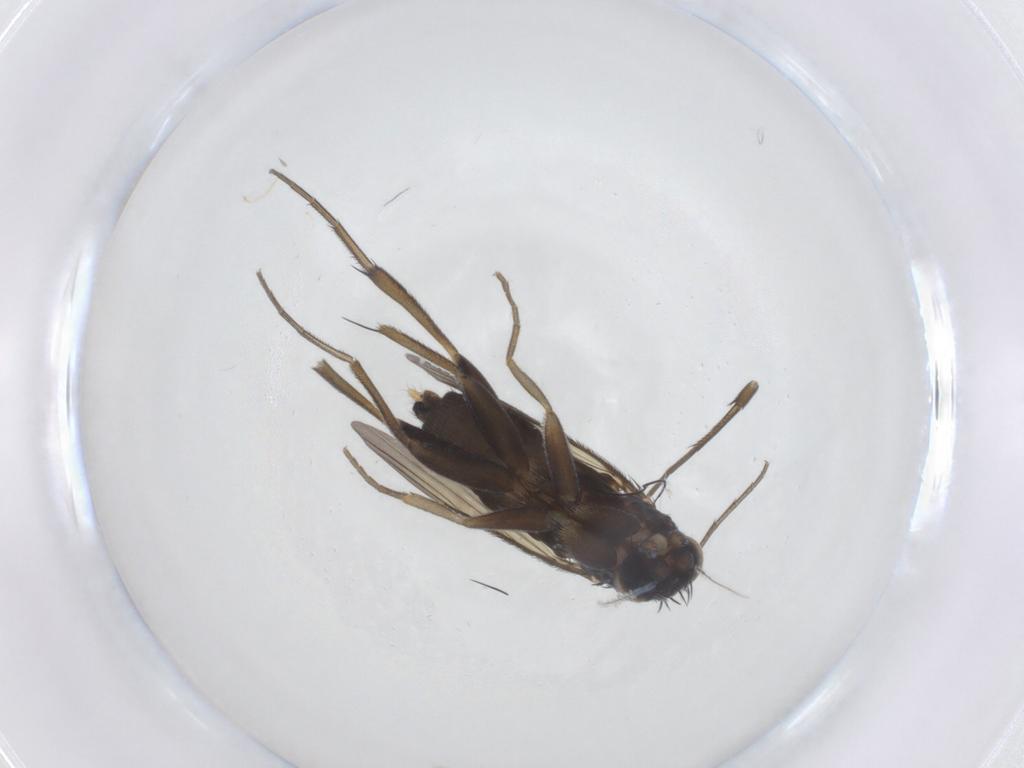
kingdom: Animalia
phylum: Arthropoda
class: Insecta
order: Diptera
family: Phoridae
